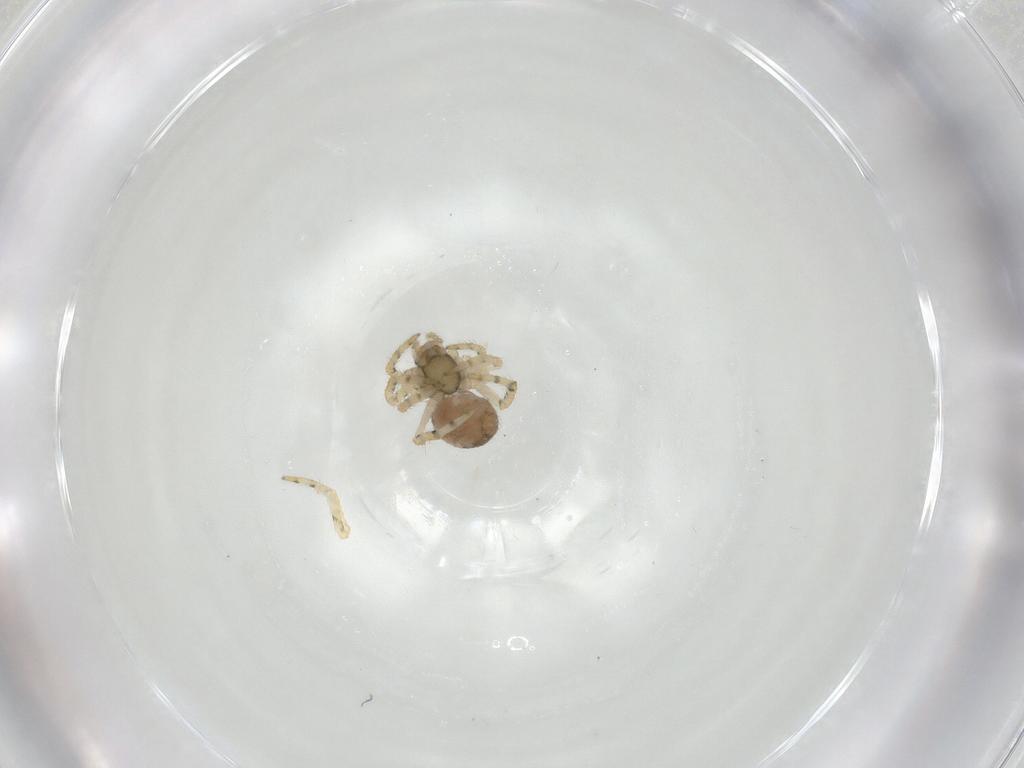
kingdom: Animalia
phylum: Arthropoda
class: Arachnida
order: Araneae
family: Theridiidae
